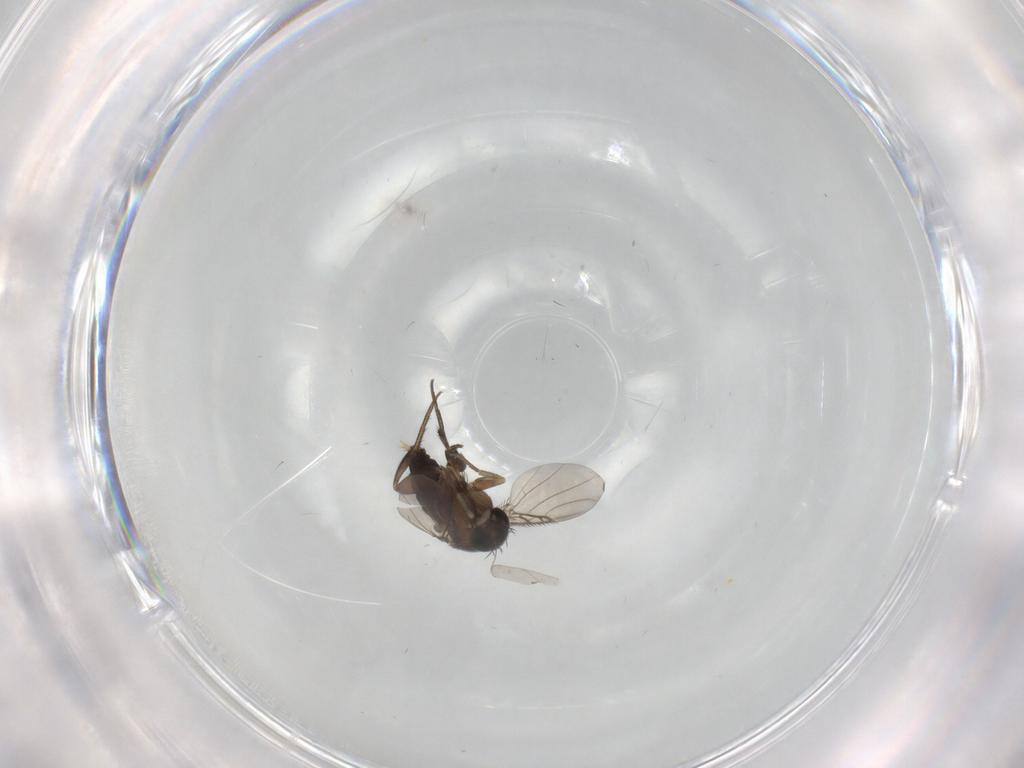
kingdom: Animalia
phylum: Arthropoda
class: Insecta
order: Diptera
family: Phoridae
